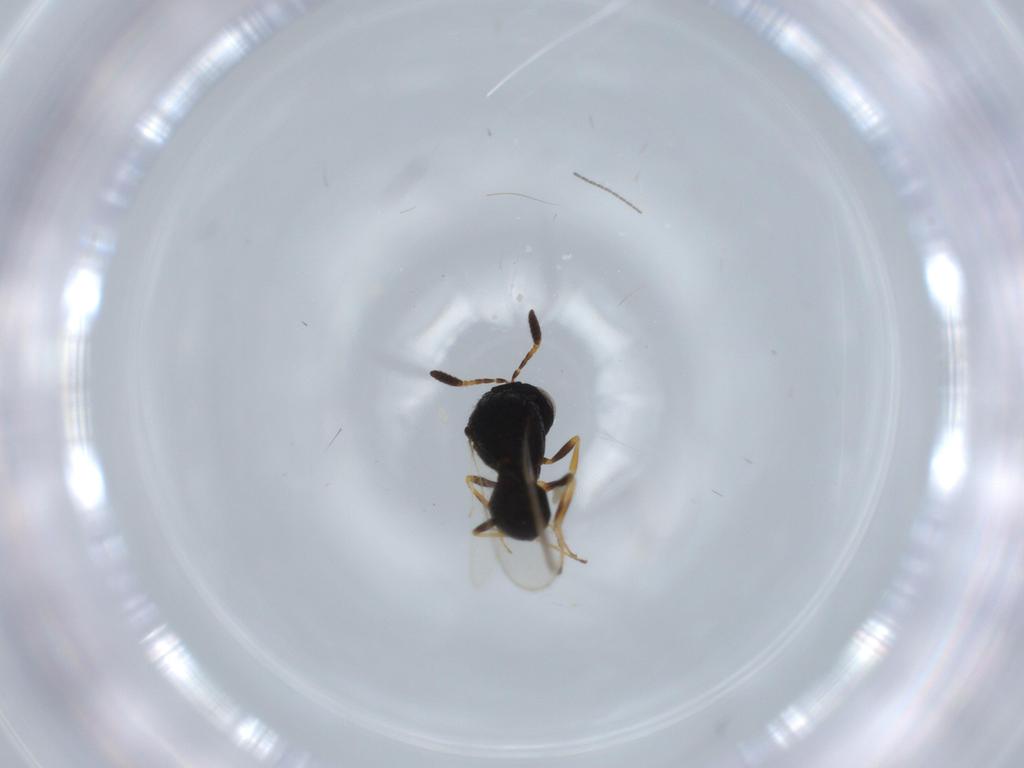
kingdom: Animalia
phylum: Arthropoda
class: Insecta
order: Hymenoptera
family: Scelionidae
